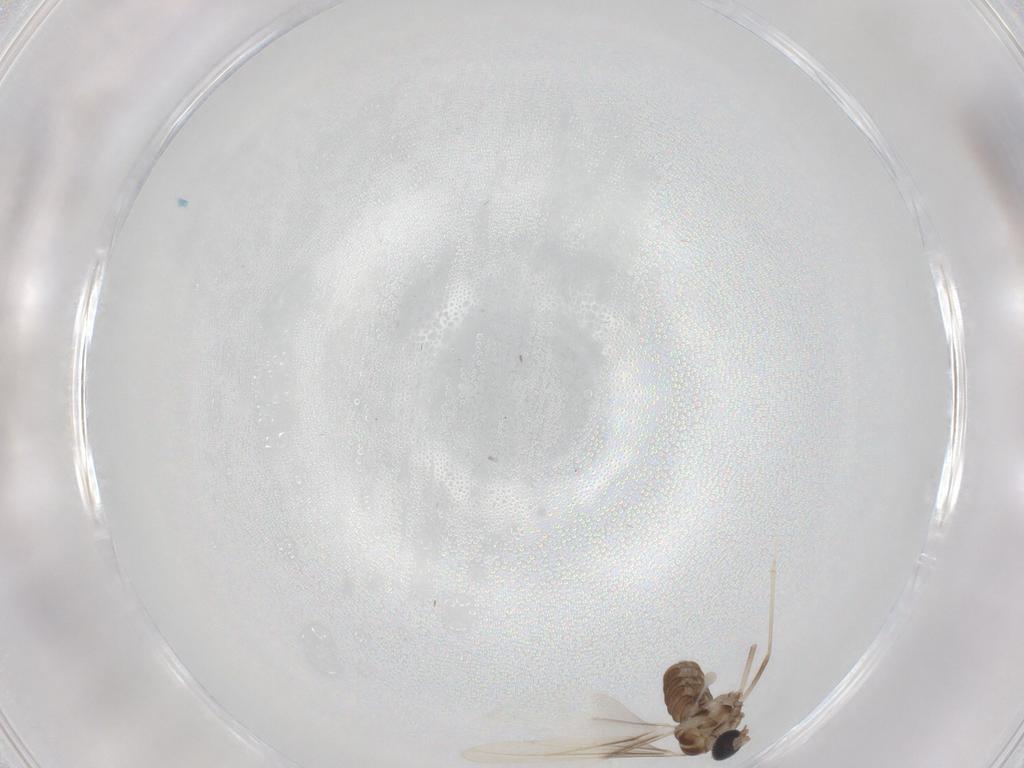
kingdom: Animalia
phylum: Arthropoda
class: Insecta
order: Diptera
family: Cecidomyiidae
